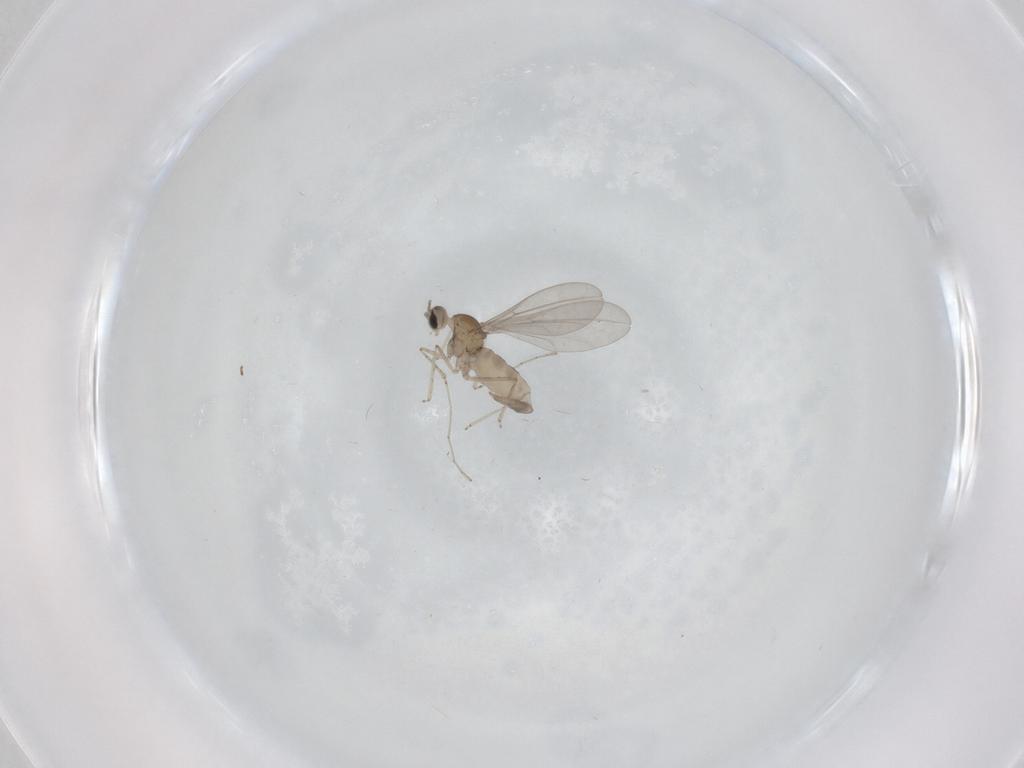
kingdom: Animalia
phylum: Arthropoda
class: Insecta
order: Diptera
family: Cecidomyiidae
